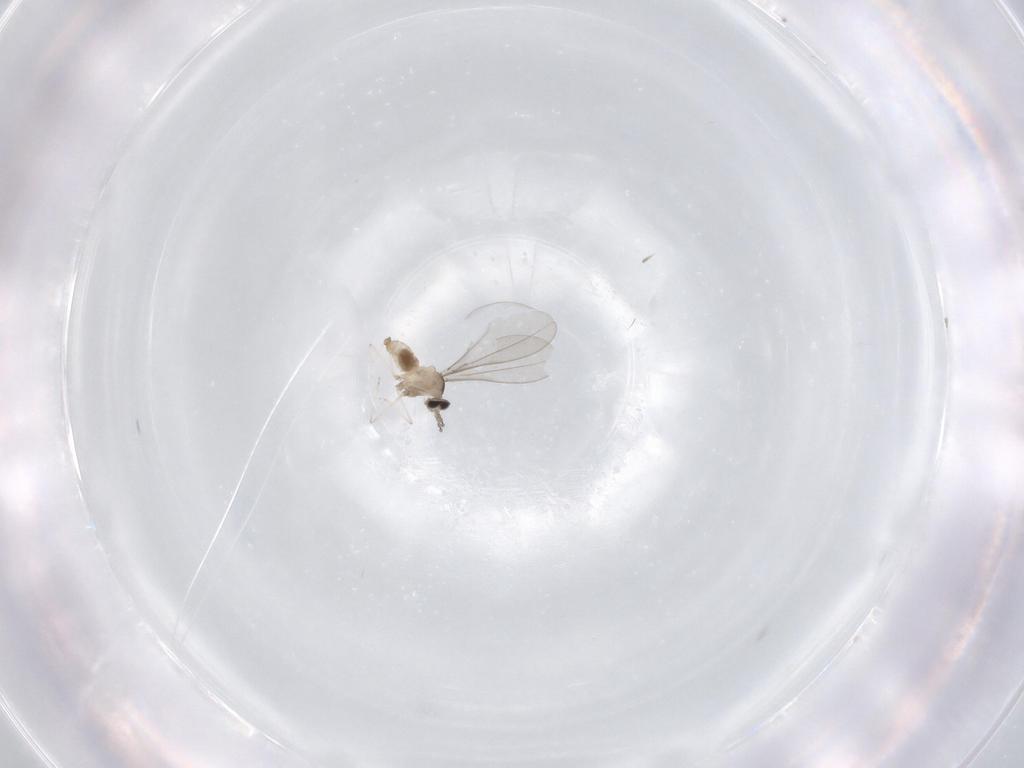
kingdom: Animalia
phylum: Arthropoda
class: Insecta
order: Diptera
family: Cecidomyiidae
